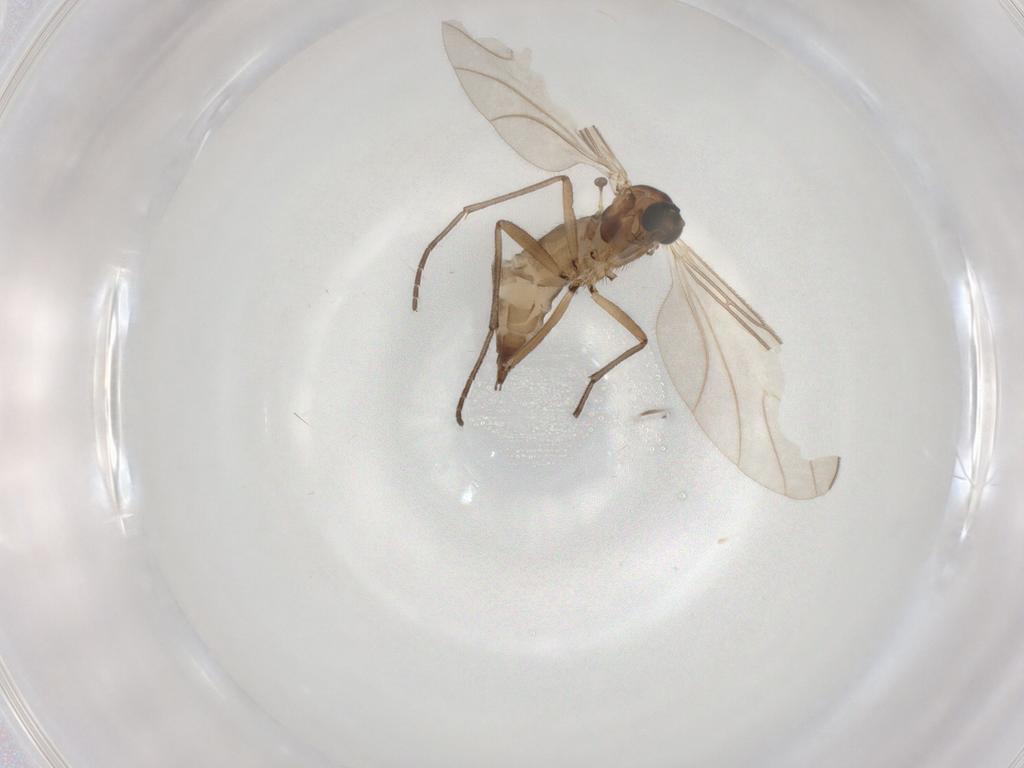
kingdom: Animalia
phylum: Arthropoda
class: Insecta
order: Diptera
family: Sciaridae
